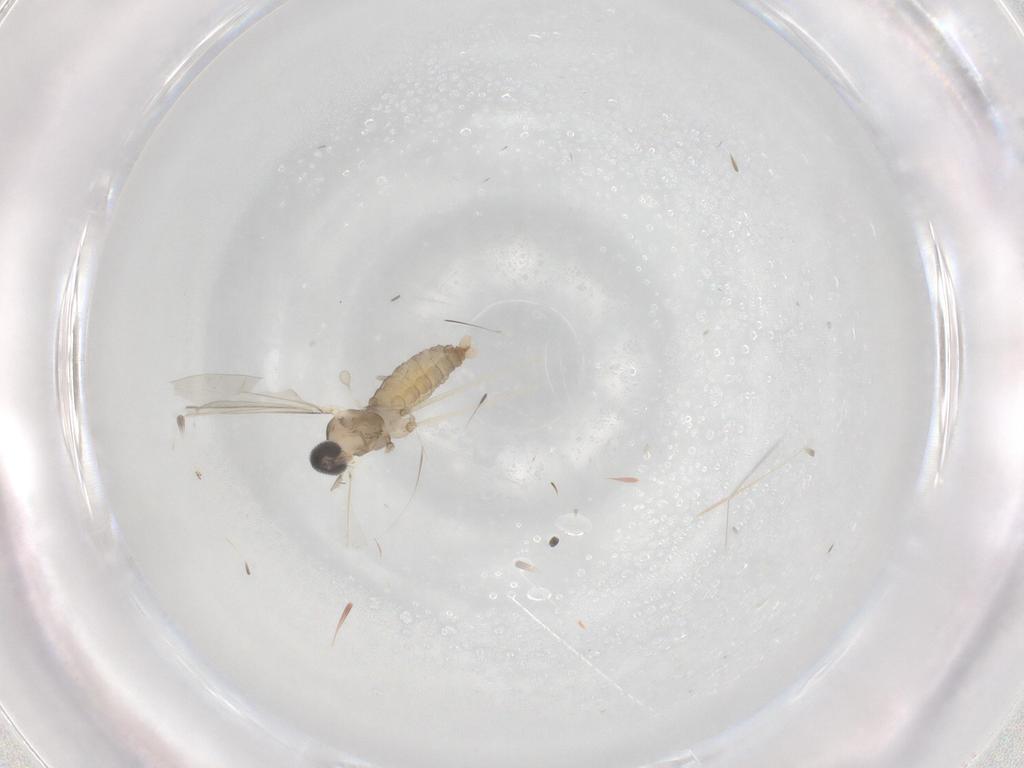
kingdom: Animalia
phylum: Arthropoda
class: Insecta
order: Diptera
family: Cecidomyiidae
